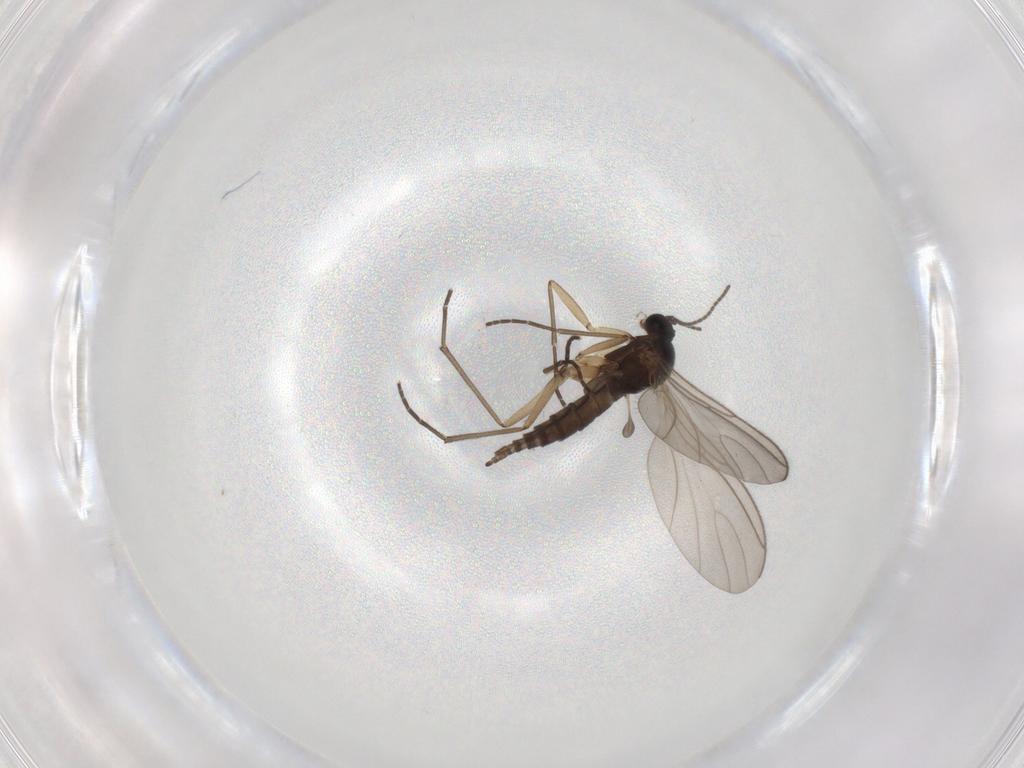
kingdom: Animalia
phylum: Arthropoda
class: Insecta
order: Diptera
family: Sciaridae
